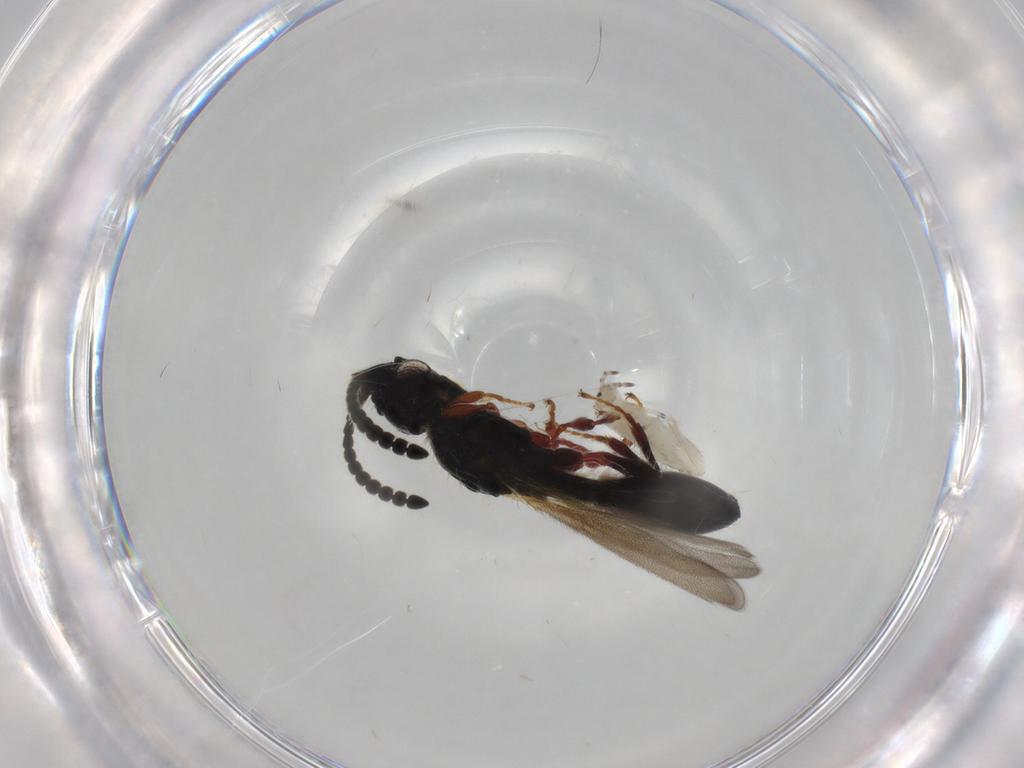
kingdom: Animalia
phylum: Arthropoda
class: Insecta
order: Hymenoptera
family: Diapriidae
